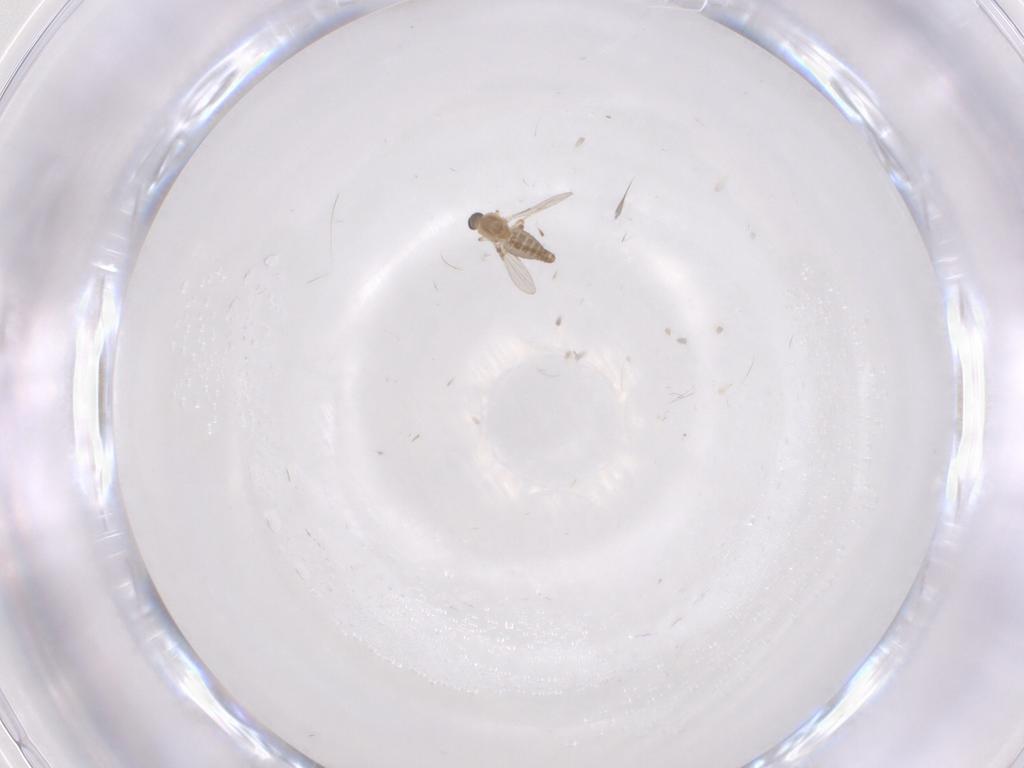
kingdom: Animalia
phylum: Arthropoda
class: Insecta
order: Diptera
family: Ceratopogonidae
